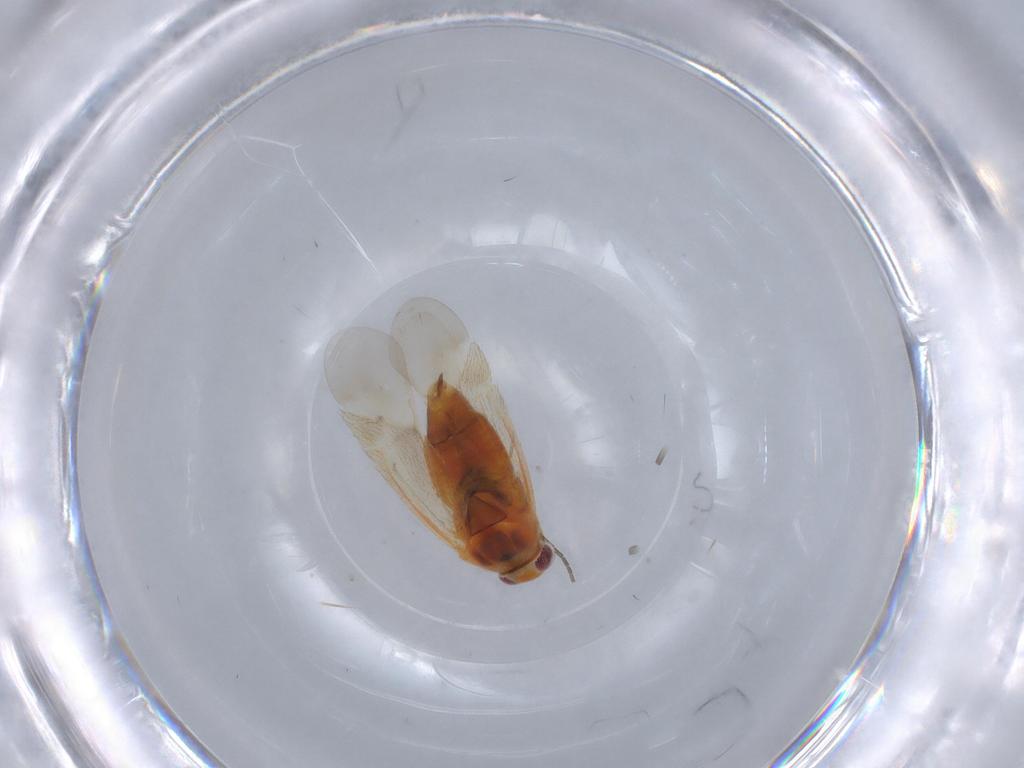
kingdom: Animalia
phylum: Arthropoda
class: Insecta
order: Hemiptera
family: Miridae
